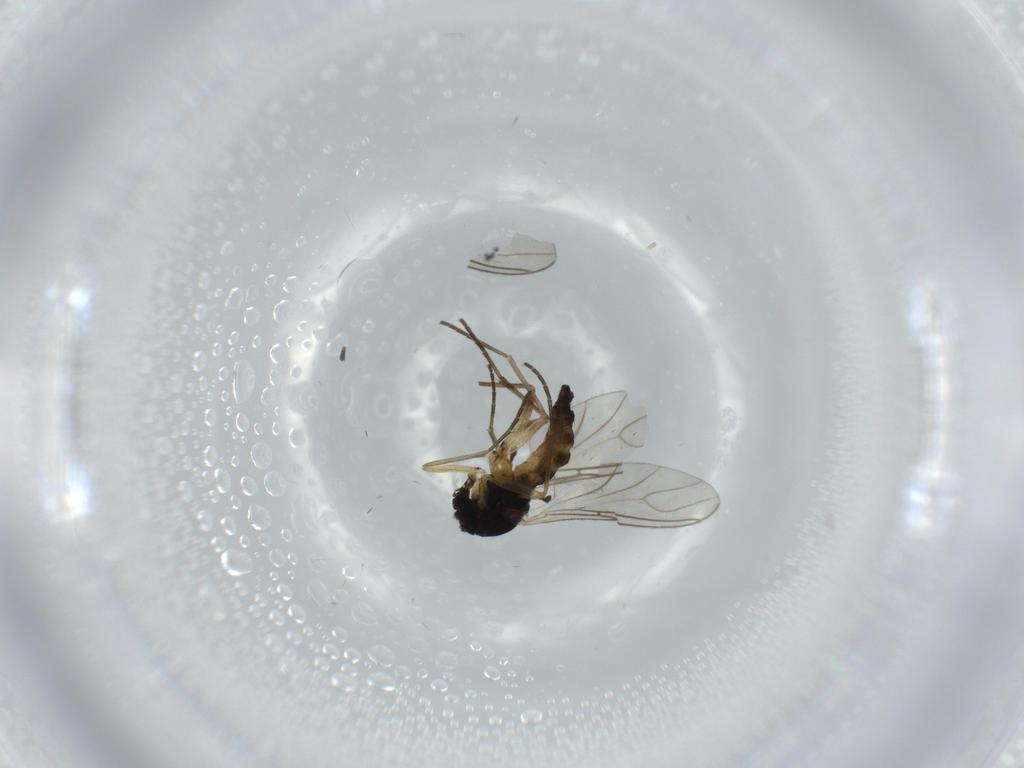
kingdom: Animalia
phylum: Arthropoda
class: Insecta
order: Diptera
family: Sciaridae
